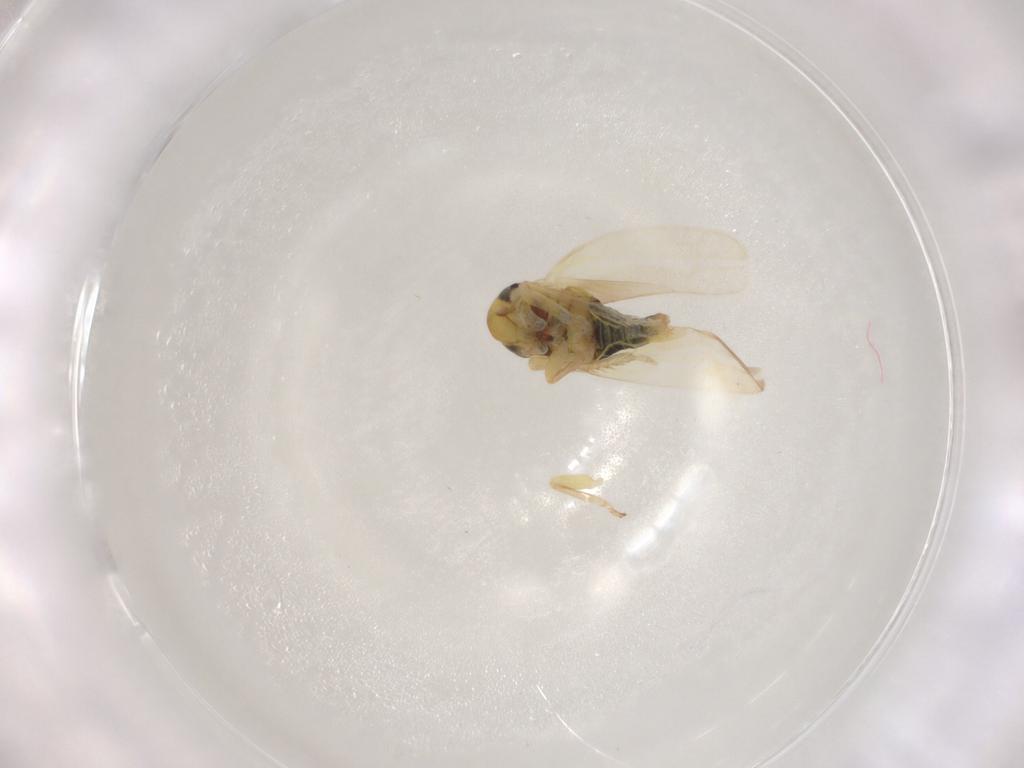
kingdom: Animalia
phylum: Arthropoda
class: Insecta
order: Hemiptera
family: Cicadellidae
